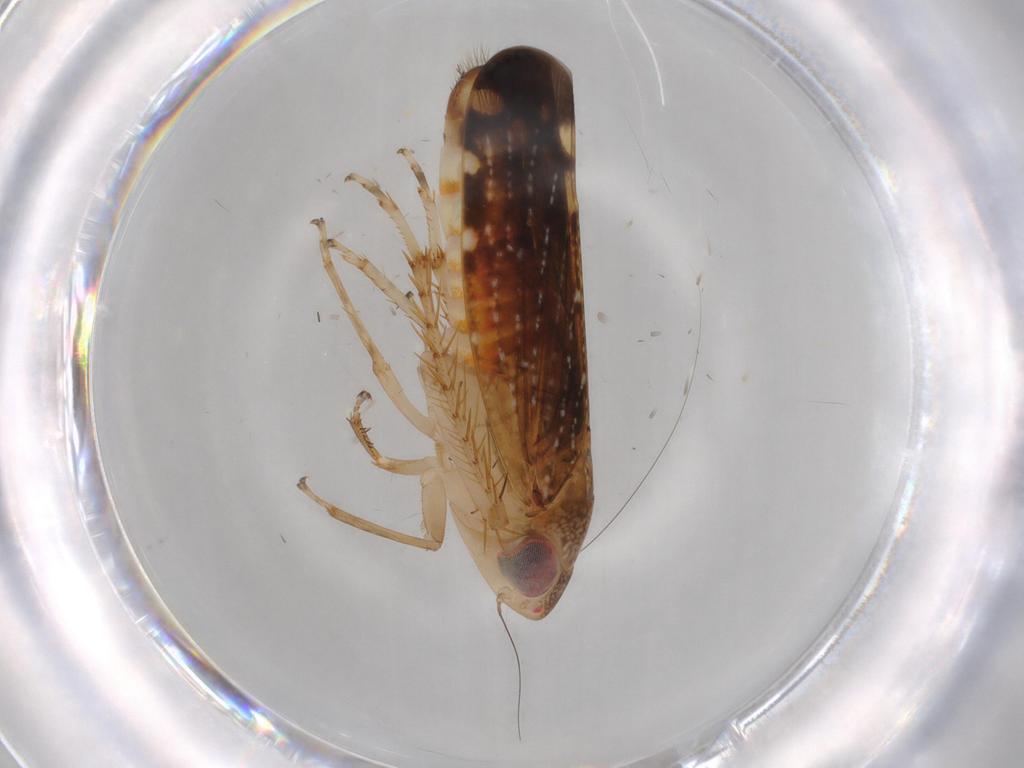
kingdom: Animalia
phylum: Arthropoda
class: Insecta
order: Hemiptera
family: Cicadellidae
